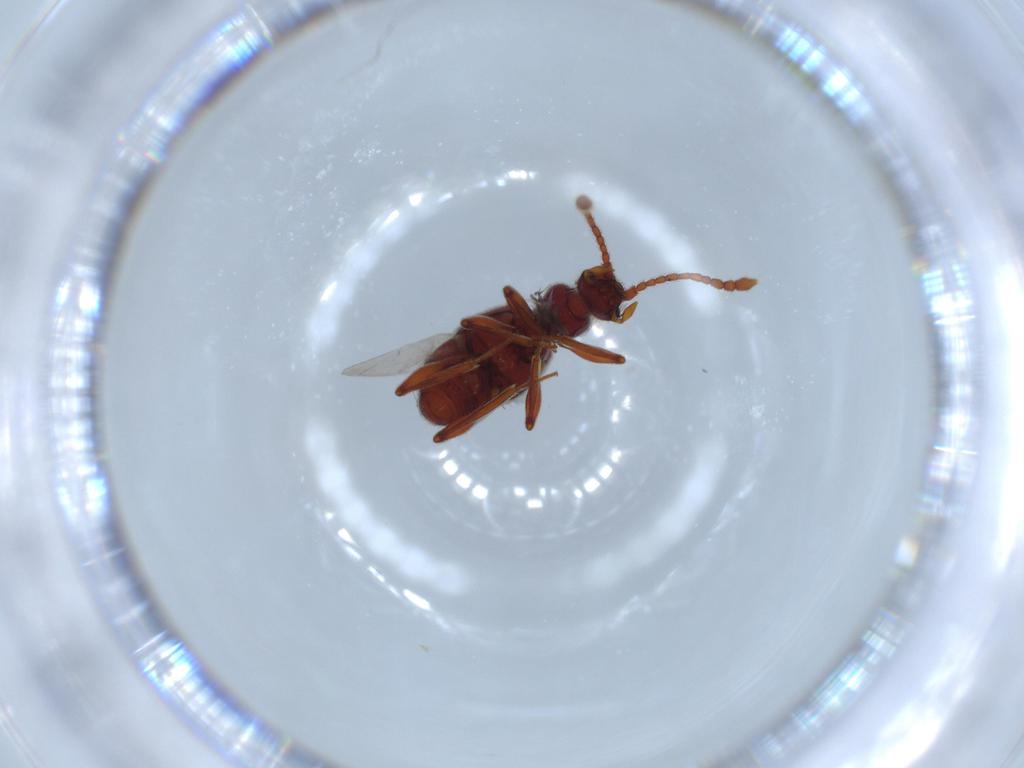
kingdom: Animalia
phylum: Arthropoda
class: Insecta
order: Coleoptera
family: Staphylinidae
